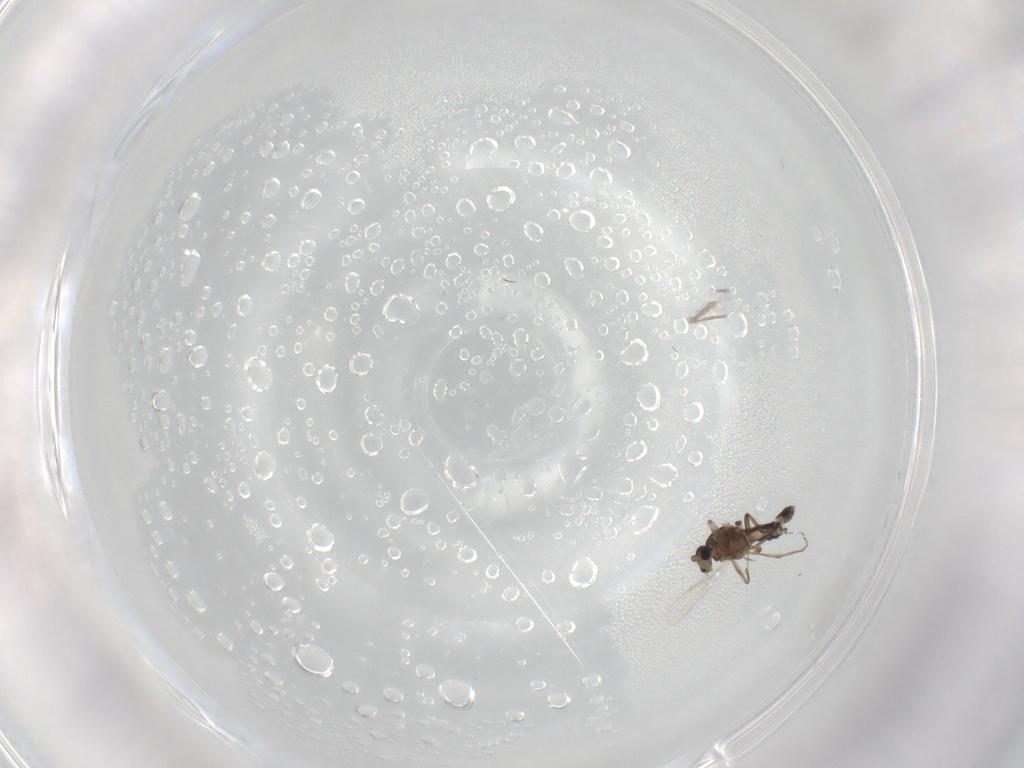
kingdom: Animalia
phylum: Arthropoda
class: Insecta
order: Diptera
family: Ceratopogonidae
